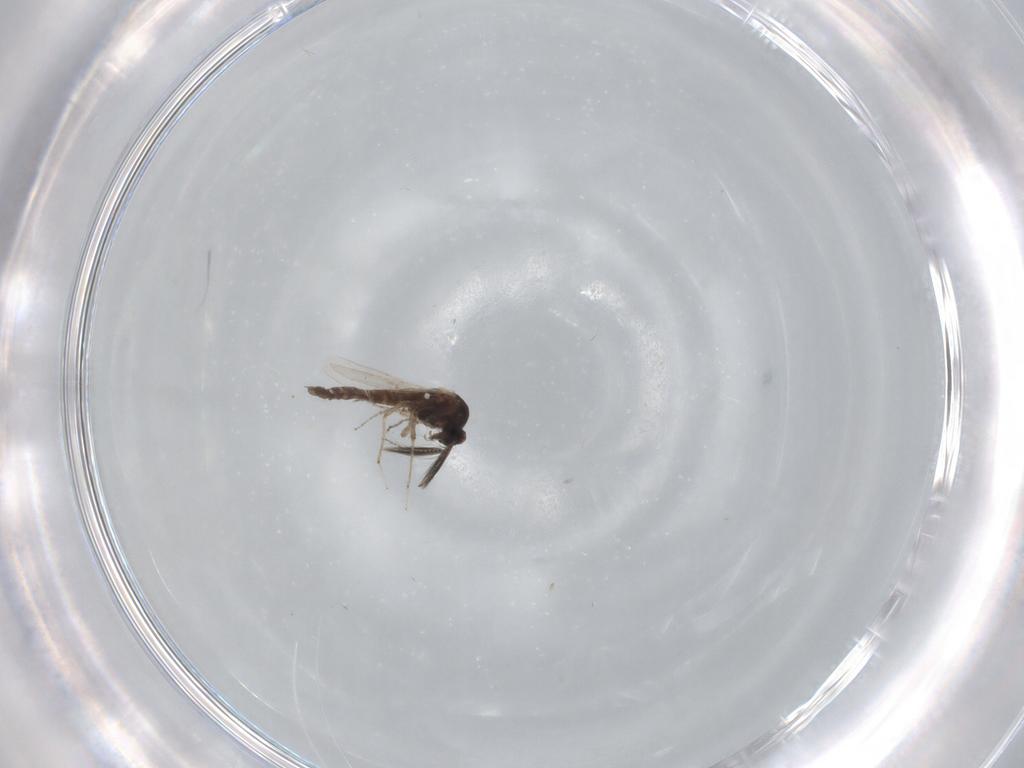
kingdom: Animalia
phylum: Arthropoda
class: Insecta
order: Diptera
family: Ceratopogonidae
